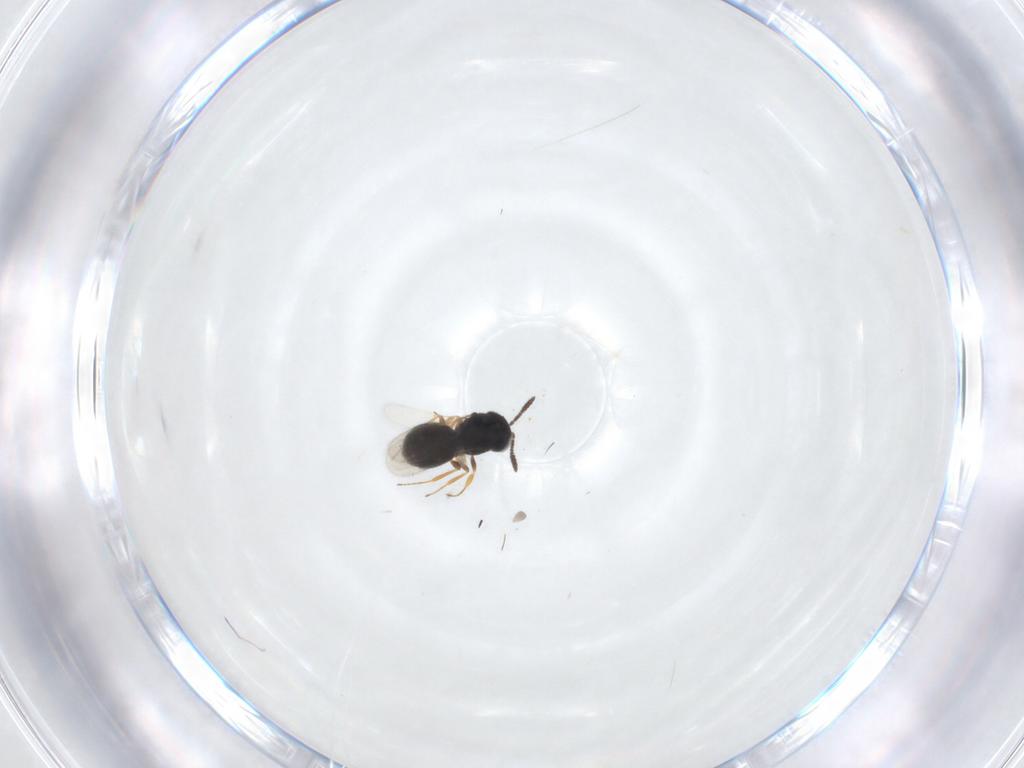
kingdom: Animalia
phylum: Arthropoda
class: Insecta
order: Hymenoptera
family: Scelionidae
